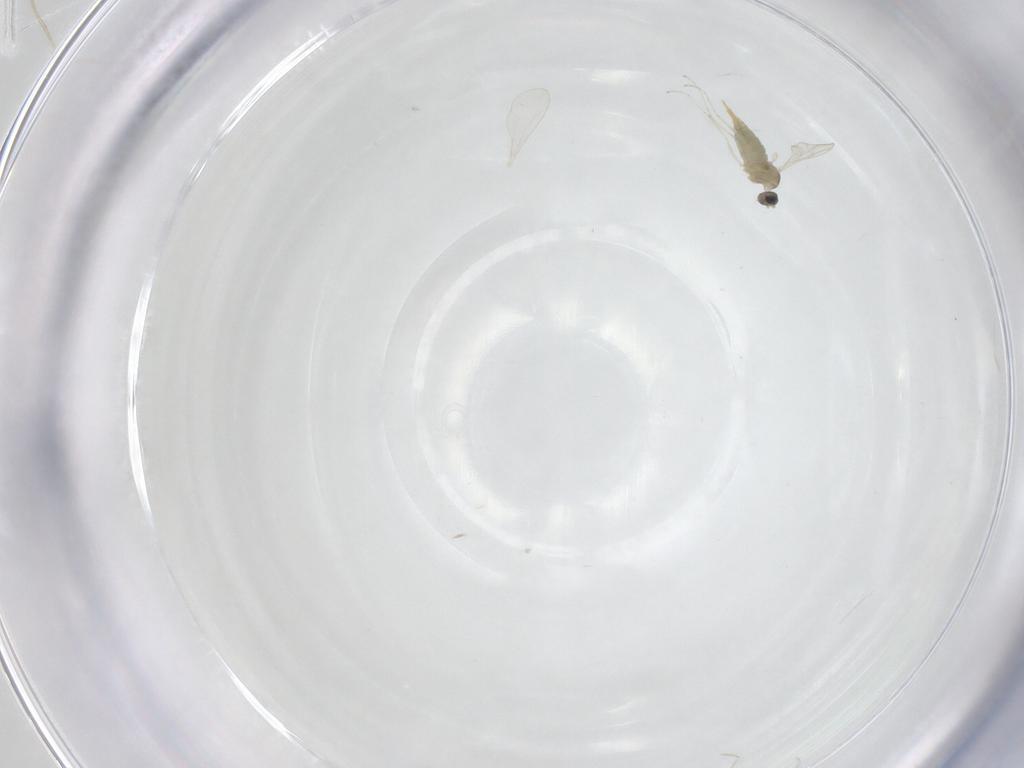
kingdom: Animalia
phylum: Arthropoda
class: Insecta
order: Diptera
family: Cecidomyiidae
